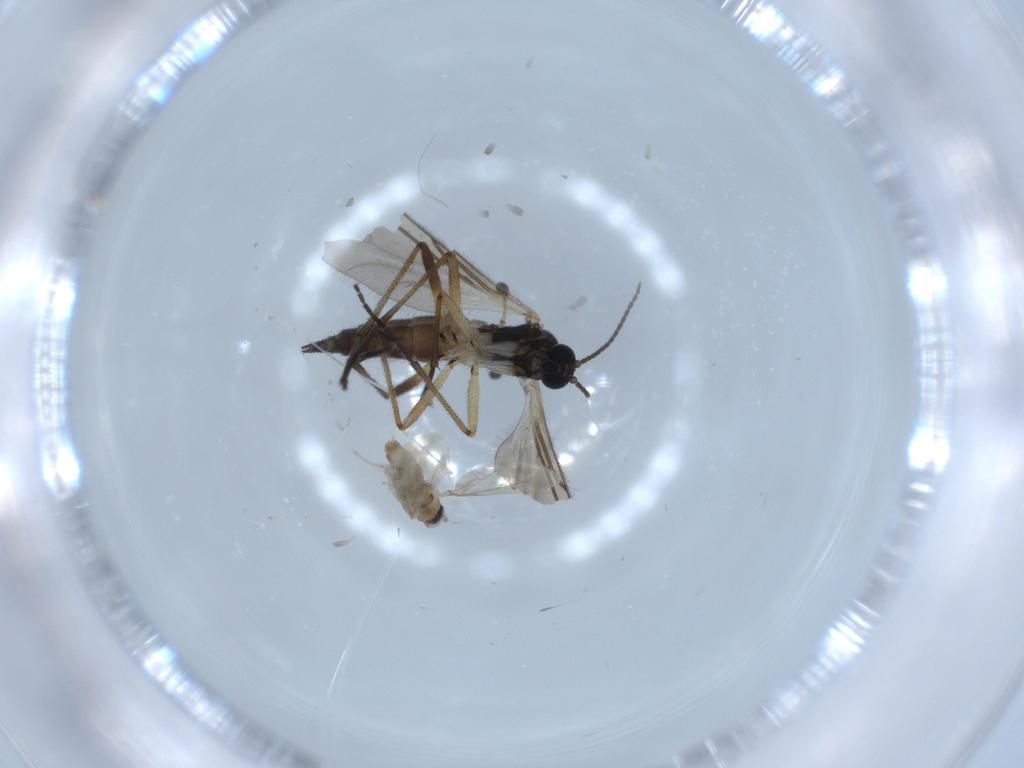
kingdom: Animalia
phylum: Arthropoda
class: Insecta
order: Diptera
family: Sciaridae
